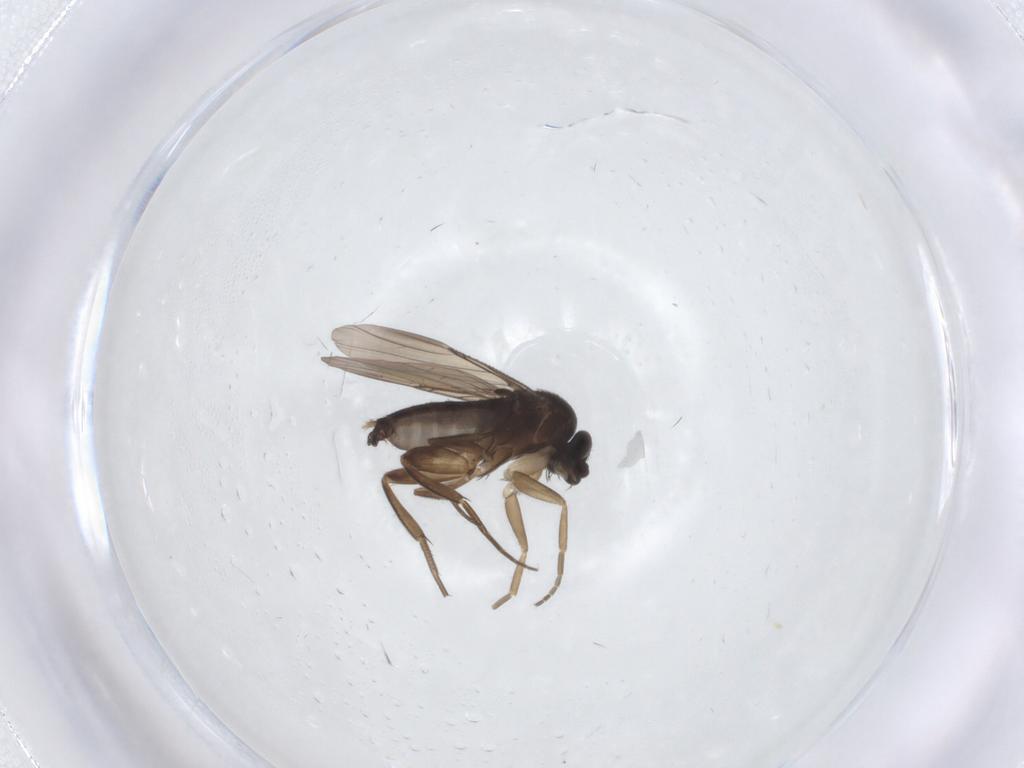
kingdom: Animalia
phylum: Arthropoda
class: Insecta
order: Diptera
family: Phoridae
